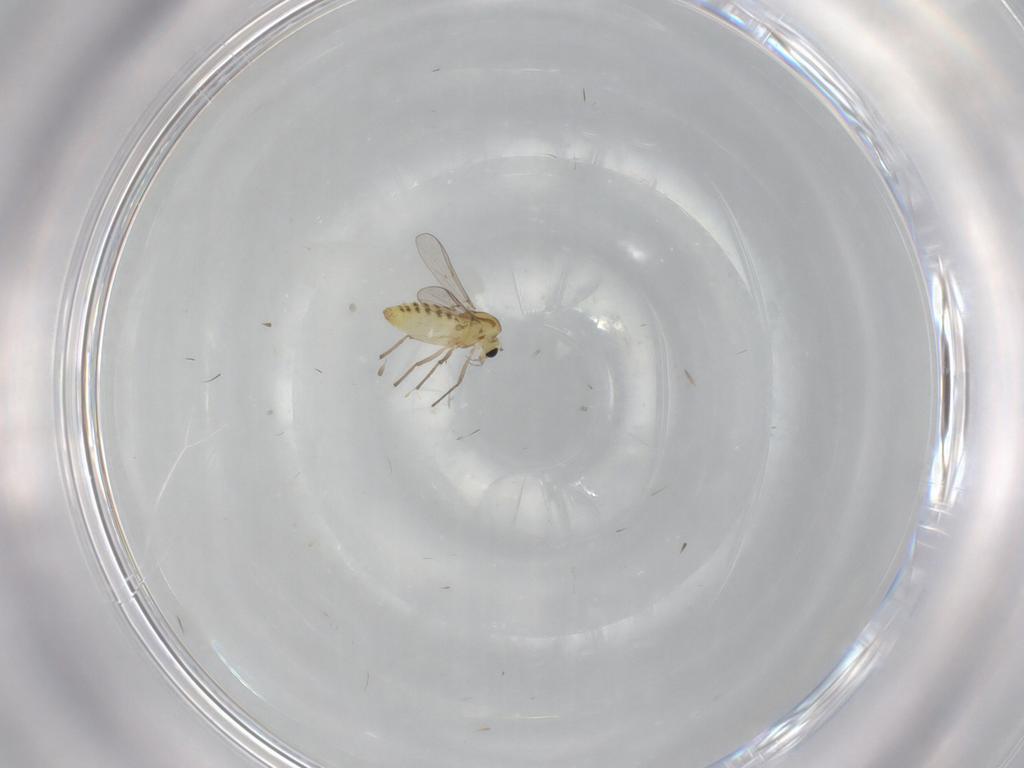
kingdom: Animalia
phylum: Arthropoda
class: Insecta
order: Diptera
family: Chironomidae
